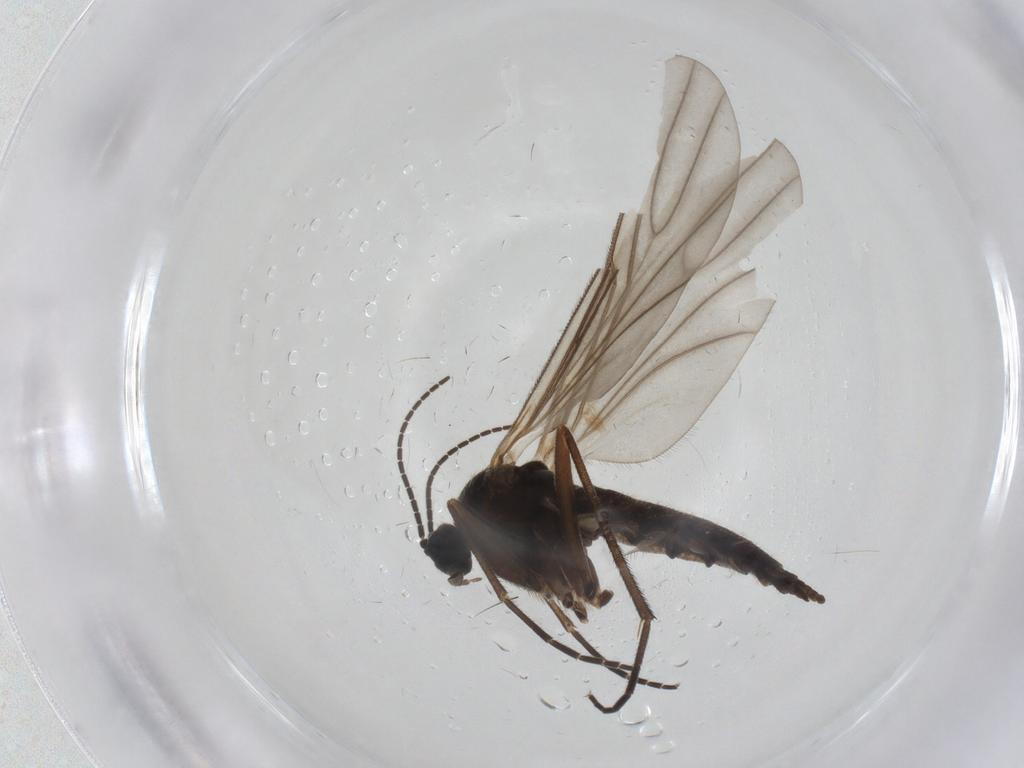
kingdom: Animalia
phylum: Arthropoda
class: Insecta
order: Diptera
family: Sciaridae
